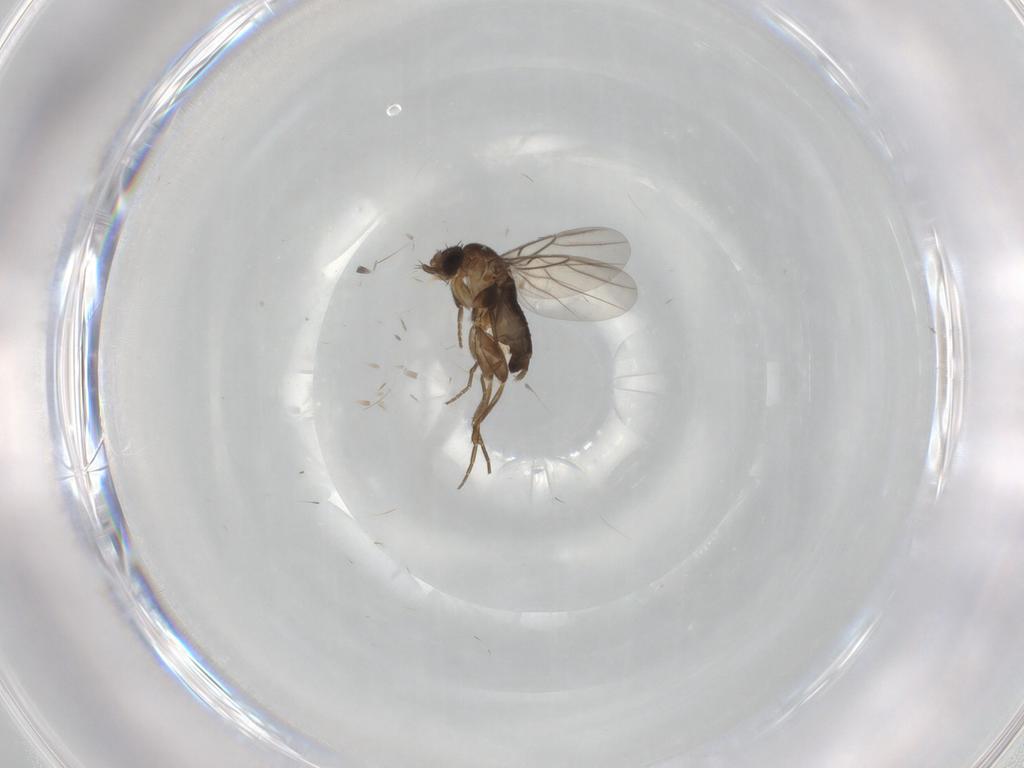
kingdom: Animalia
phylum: Arthropoda
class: Insecta
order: Diptera
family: Phoridae
